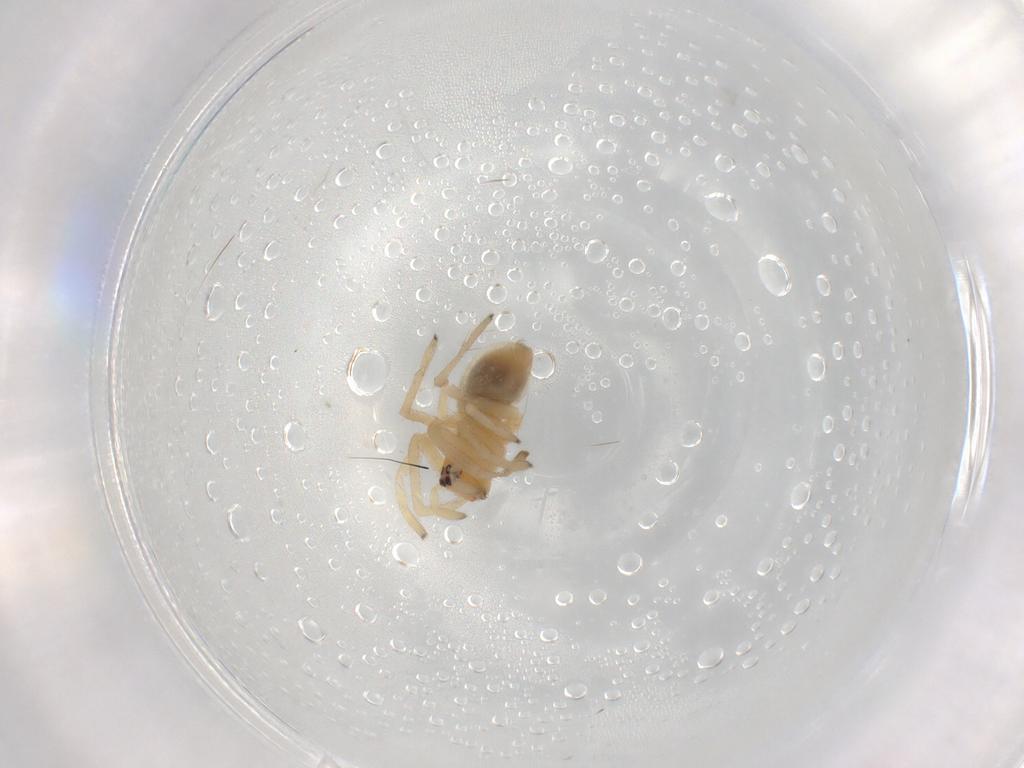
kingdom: Animalia
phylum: Arthropoda
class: Arachnida
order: Araneae
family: Cheiracanthiidae
